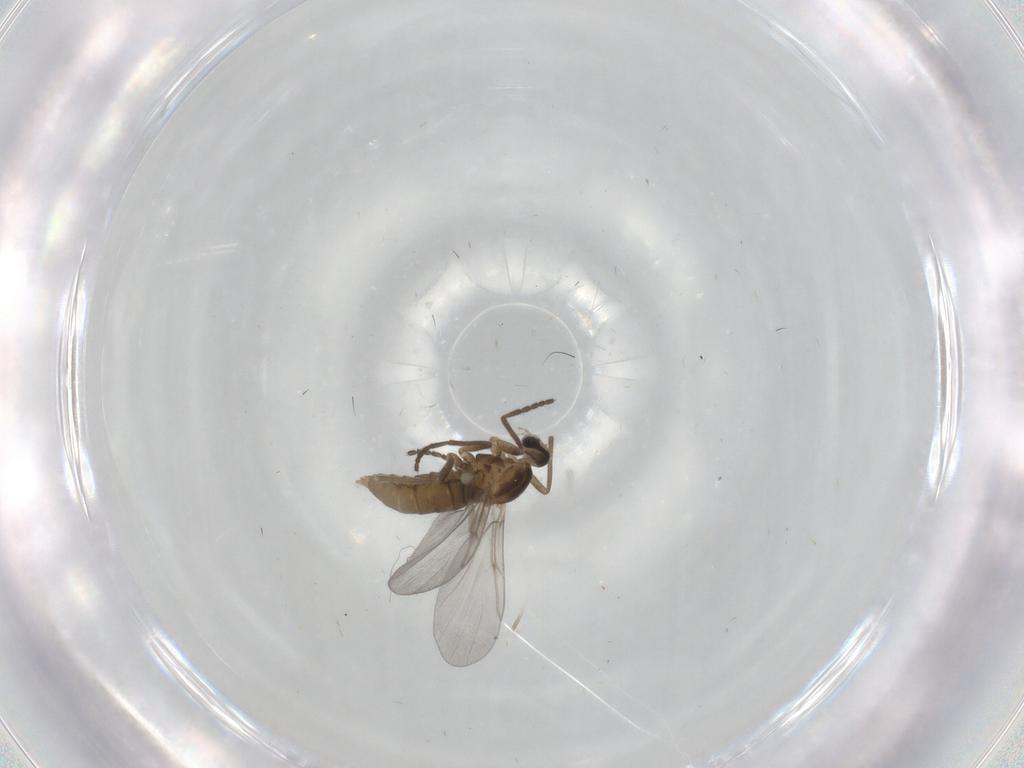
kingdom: Animalia
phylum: Arthropoda
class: Insecta
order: Diptera
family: Cecidomyiidae
